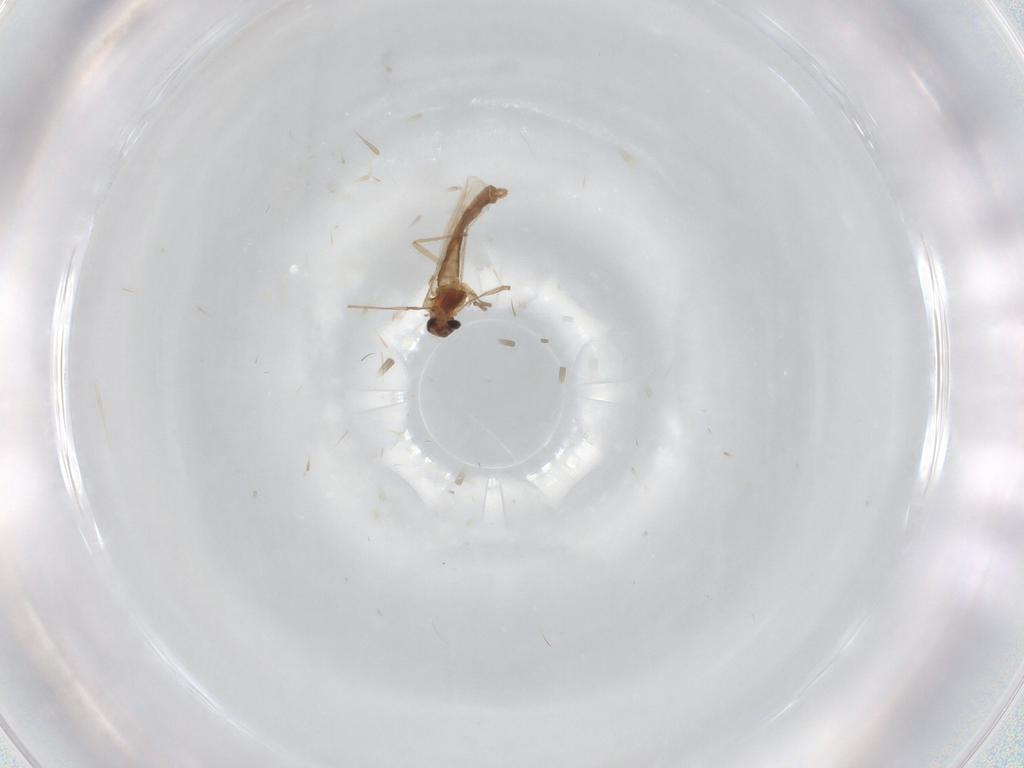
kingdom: Animalia
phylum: Arthropoda
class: Insecta
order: Diptera
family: Chironomidae
